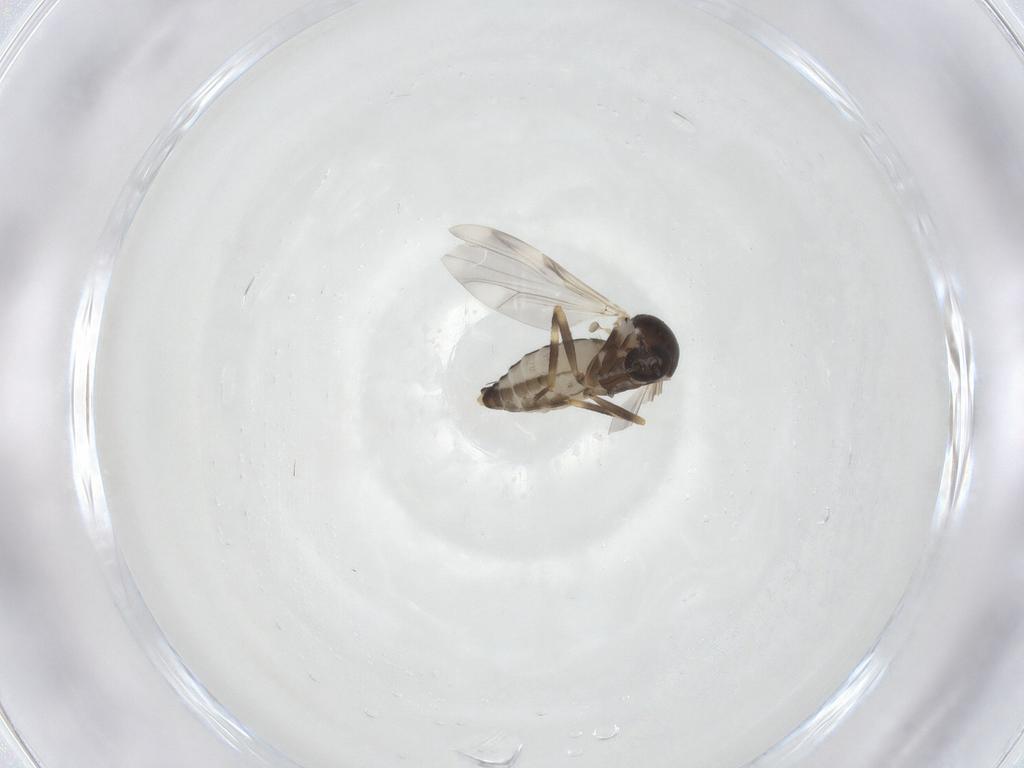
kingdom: Animalia
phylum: Arthropoda
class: Insecta
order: Diptera
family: Ceratopogonidae
